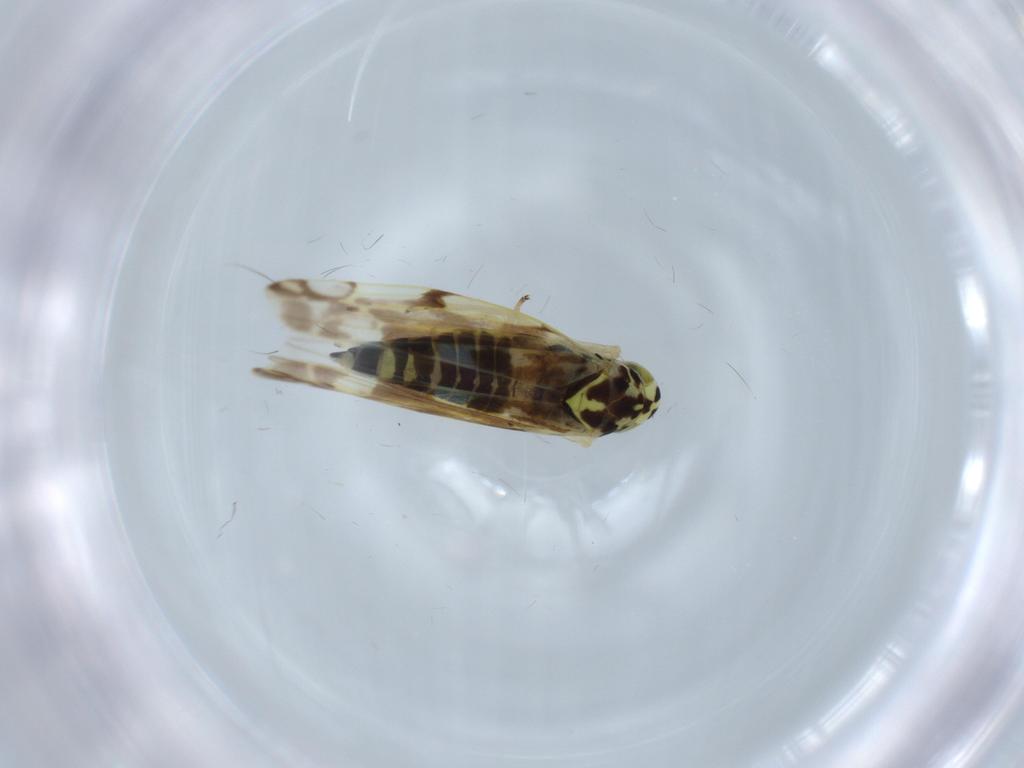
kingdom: Animalia
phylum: Arthropoda
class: Insecta
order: Hemiptera
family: Cicadellidae
